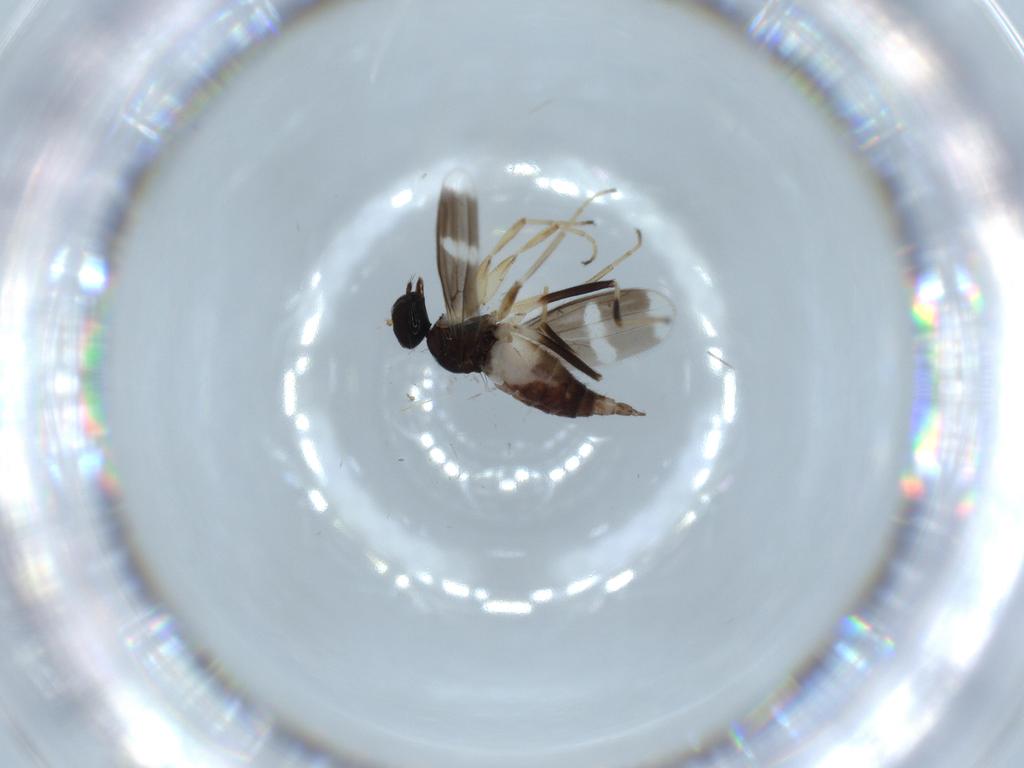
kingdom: Animalia
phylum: Arthropoda
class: Insecta
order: Diptera
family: Hybotidae
